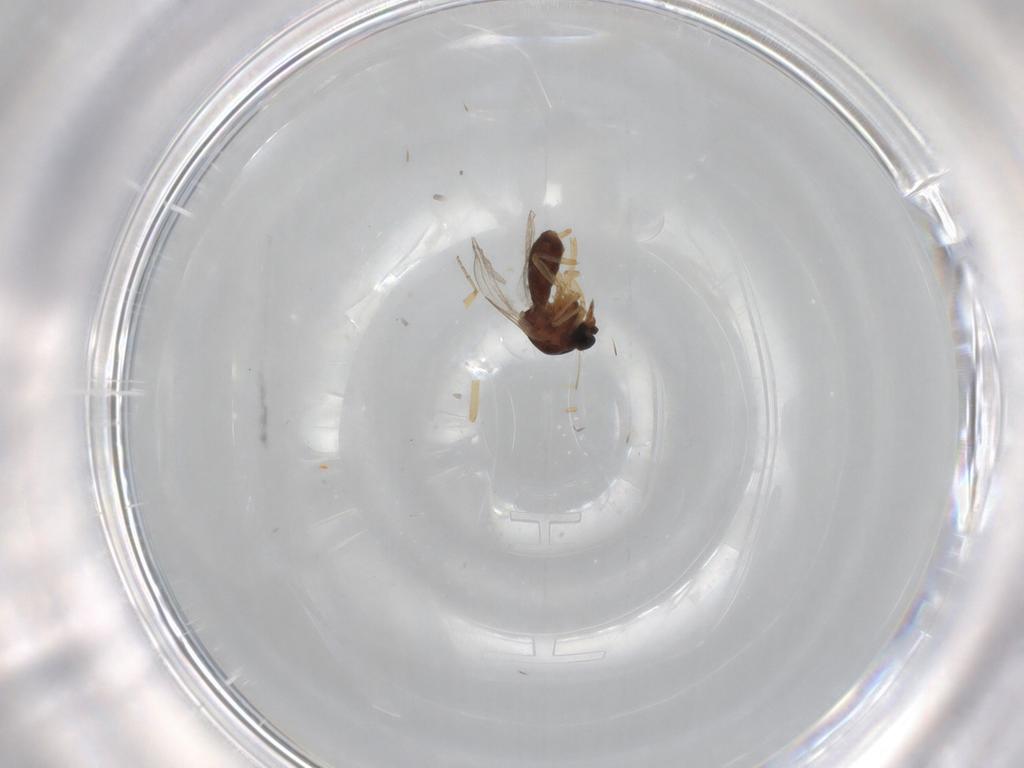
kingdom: Animalia
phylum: Arthropoda
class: Insecta
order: Diptera
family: Ceratopogonidae
